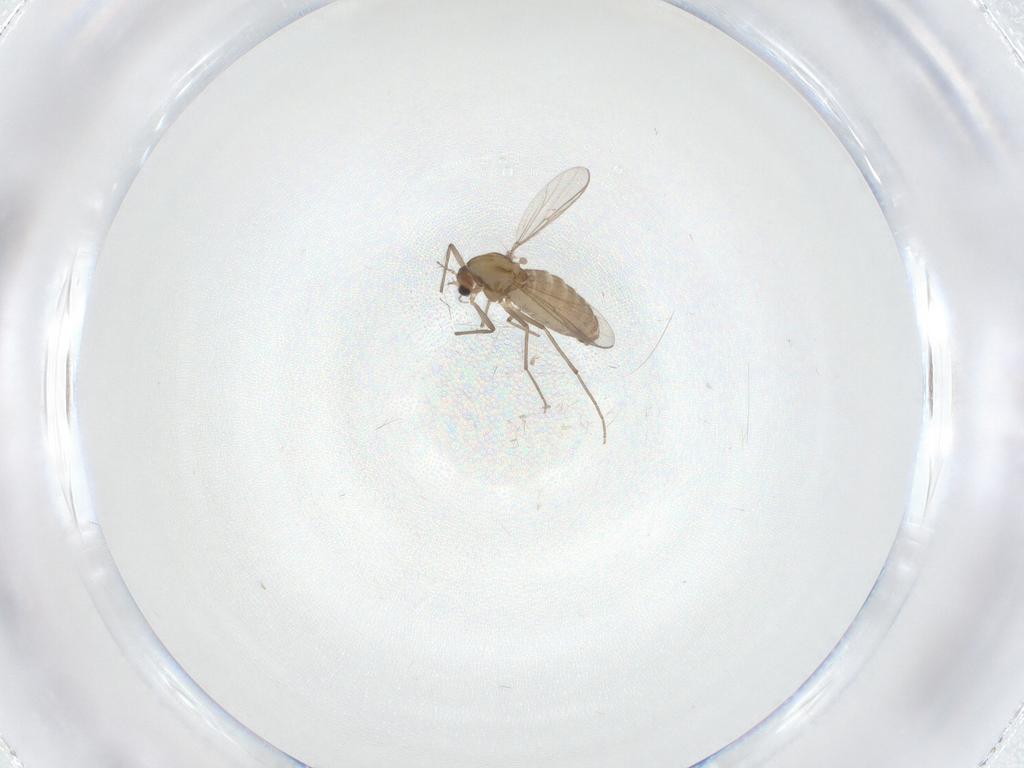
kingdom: Animalia
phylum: Arthropoda
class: Insecta
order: Diptera
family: Chironomidae
